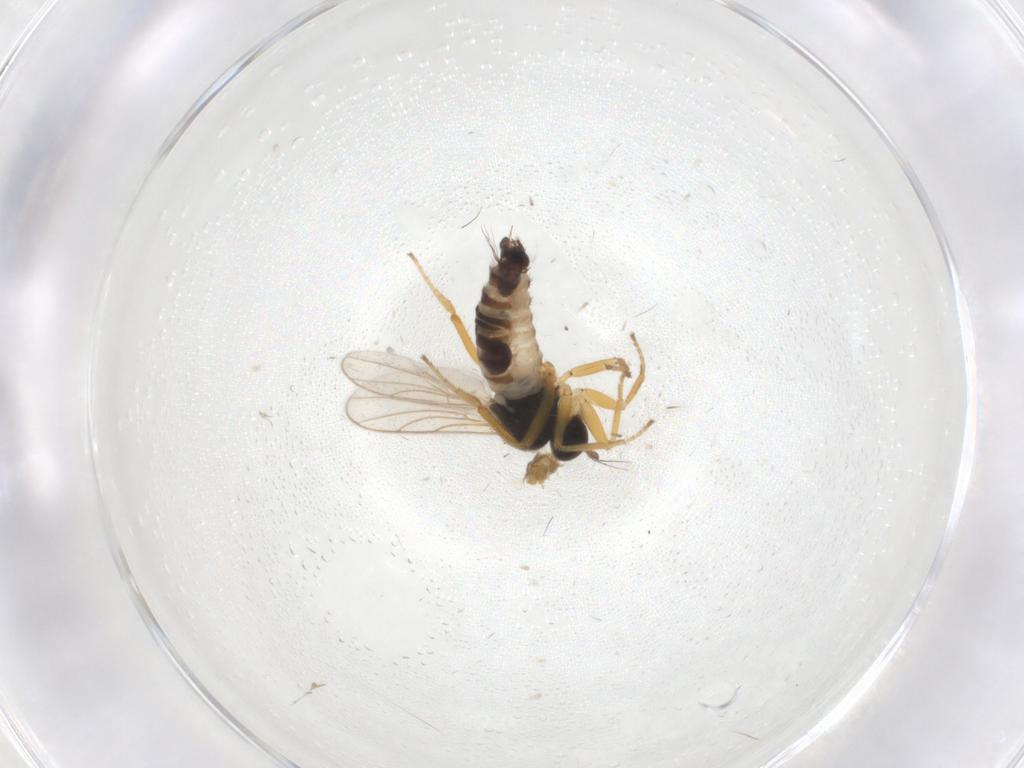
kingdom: Animalia
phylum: Arthropoda
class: Insecta
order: Diptera
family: Hybotidae
